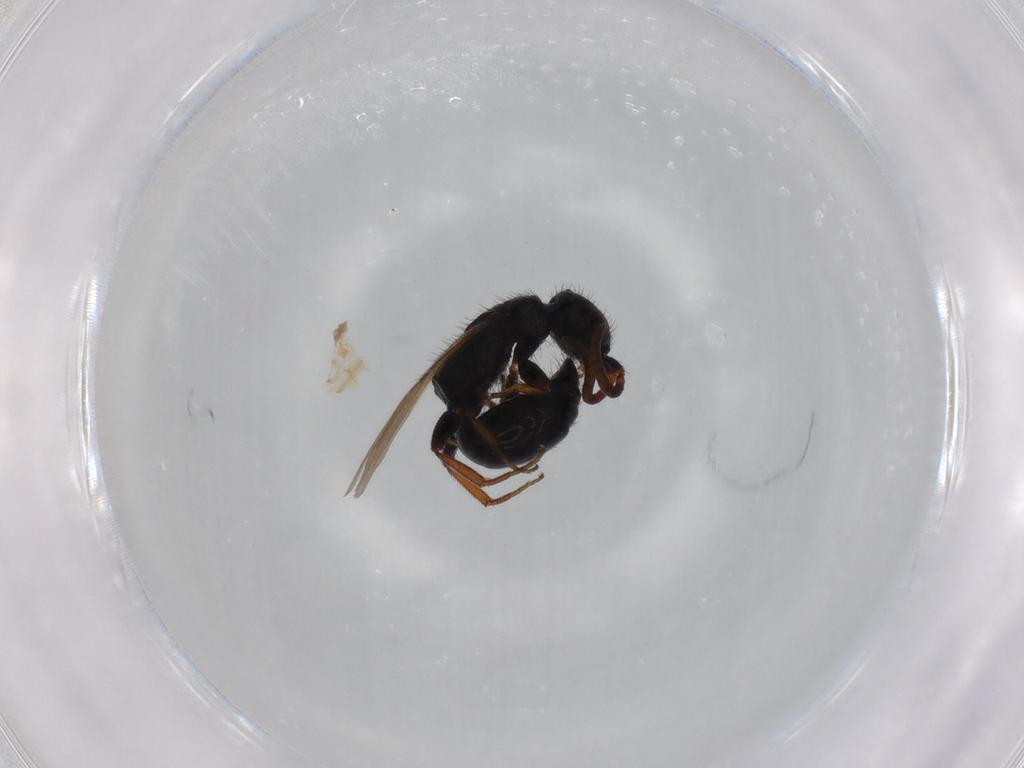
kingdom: Animalia
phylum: Arthropoda
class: Insecta
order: Hymenoptera
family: Bethylidae
